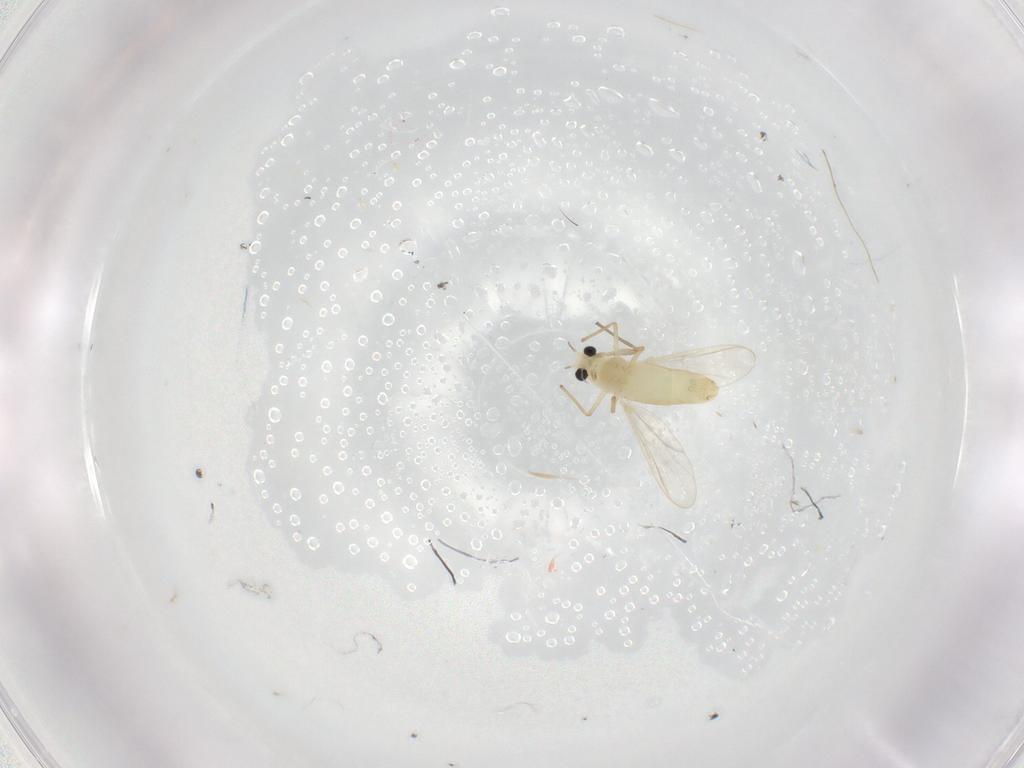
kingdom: Animalia
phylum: Arthropoda
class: Insecta
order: Diptera
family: Chironomidae
